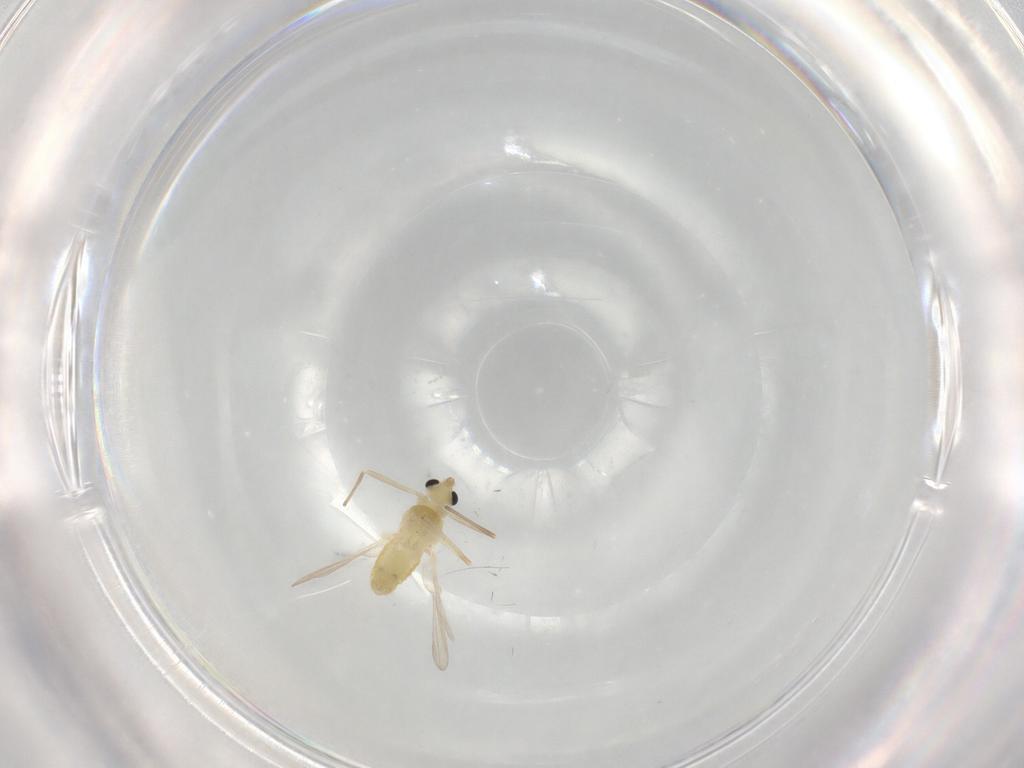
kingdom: Animalia
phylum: Arthropoda
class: Insecta
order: Diptera
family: Chironomidae
